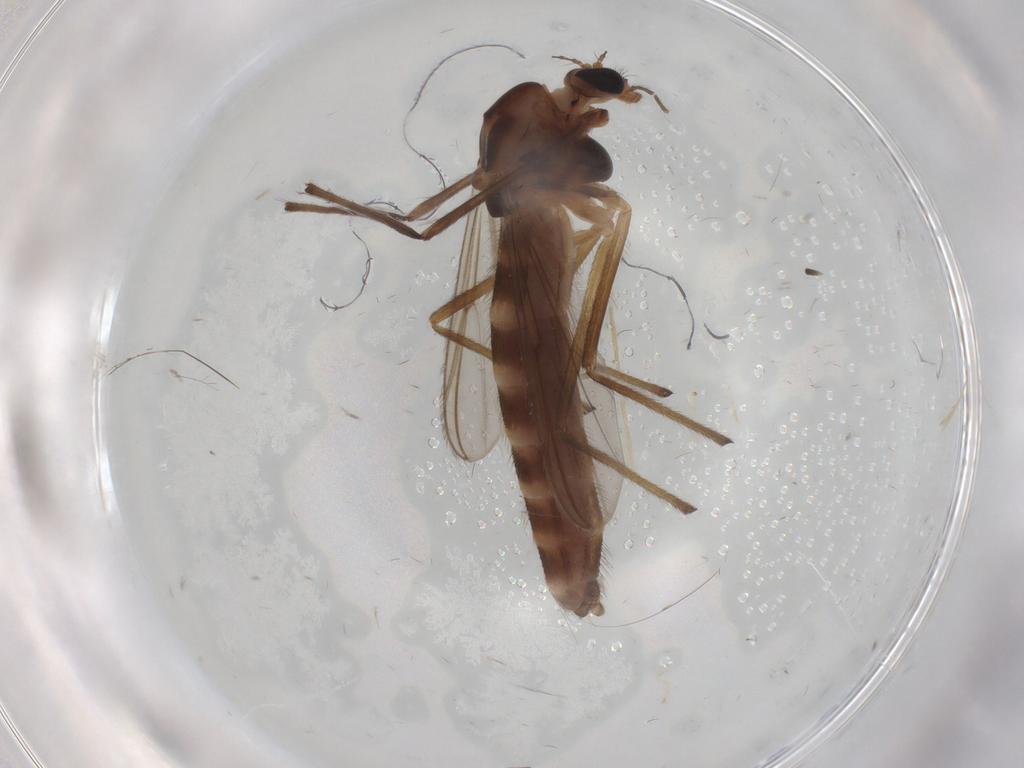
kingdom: Animalia
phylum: Arthropoda
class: Insecta
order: Diptera
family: Chironomidae
